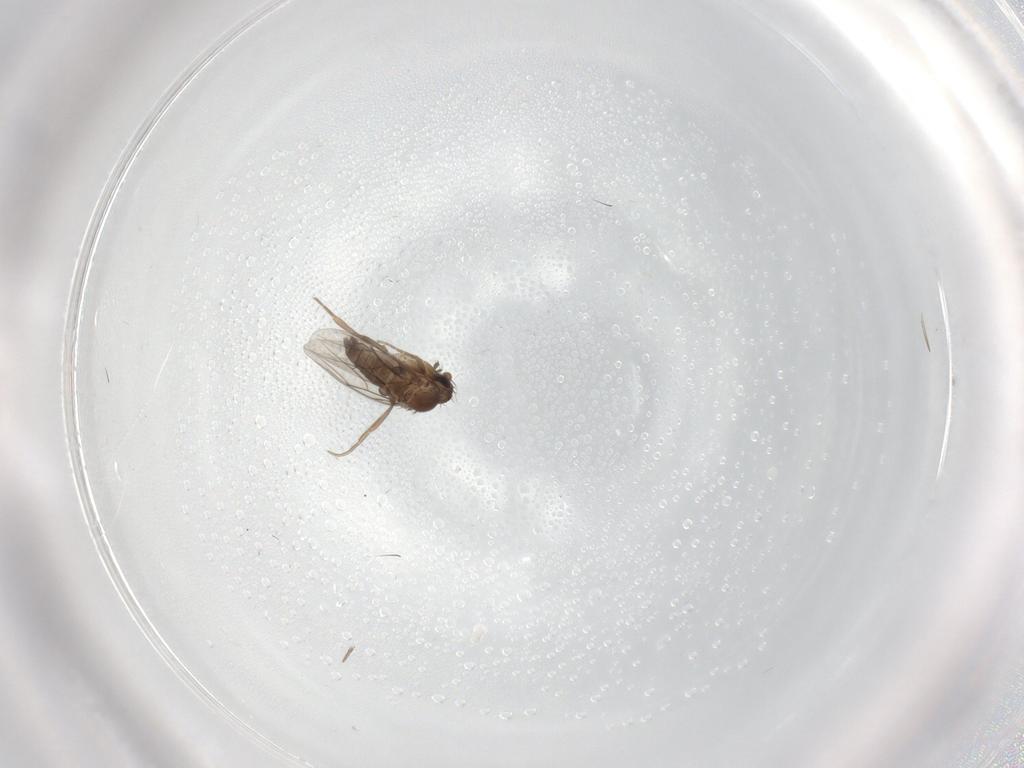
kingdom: Animalia
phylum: Arthropoda
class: Insecta
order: Diptera
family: Phoridae
